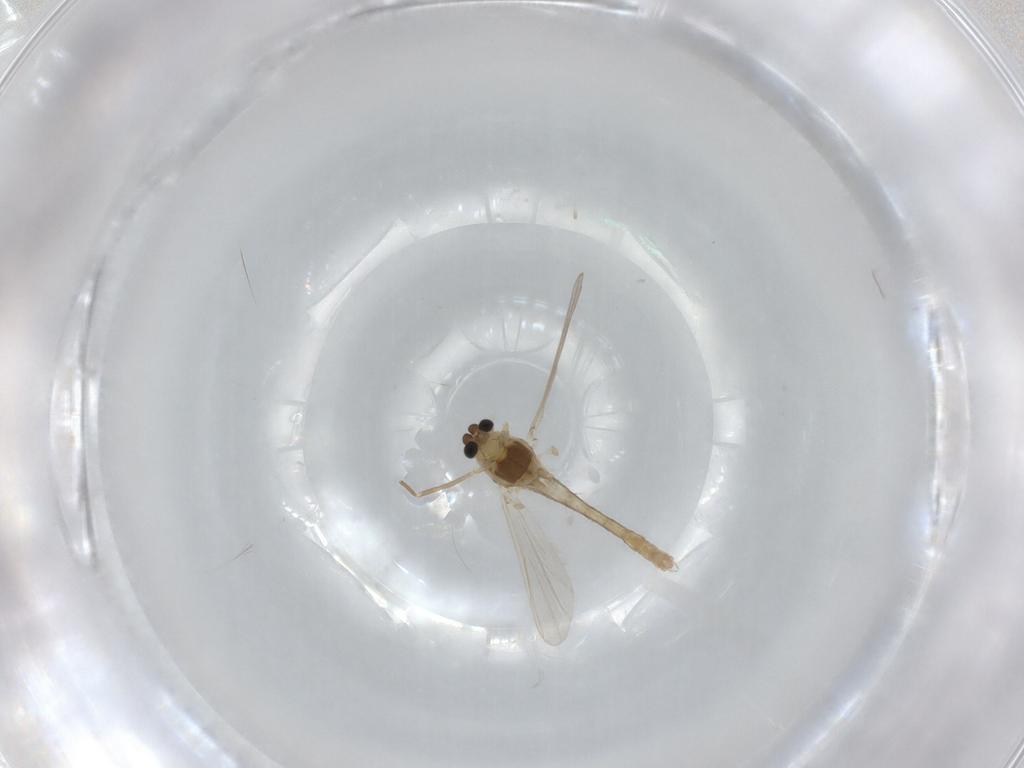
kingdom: Animalia
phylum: Arthropoda
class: Insecta
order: Diptera
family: Chironomidae
